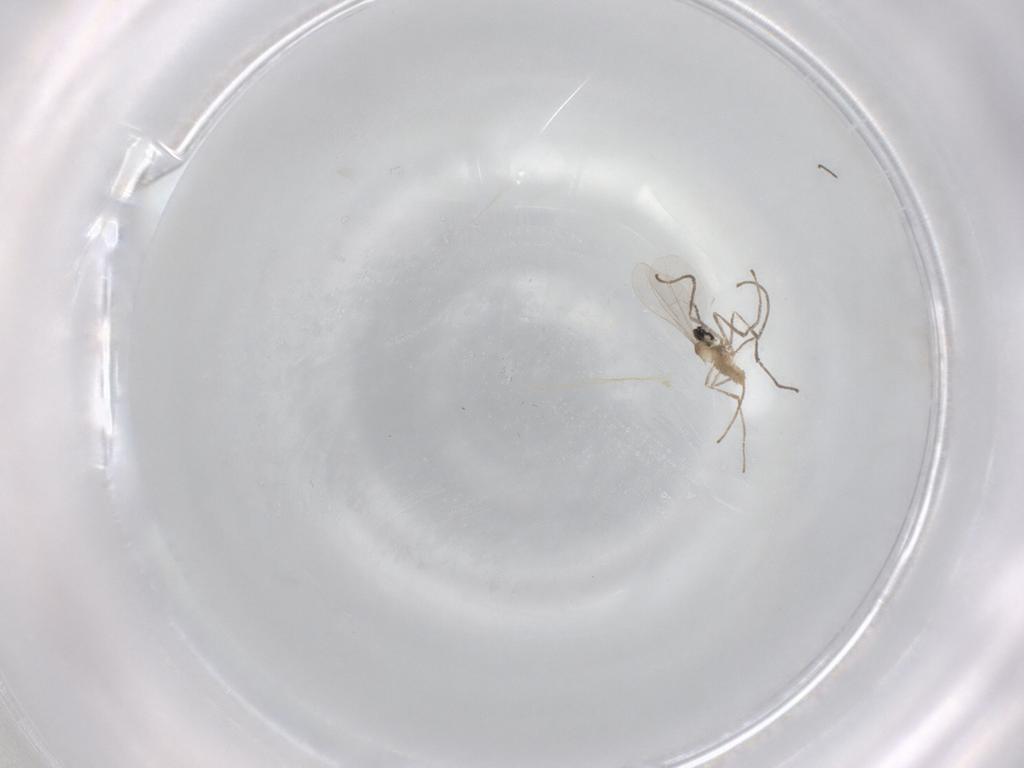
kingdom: Animalia
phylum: Arthropoda
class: Insecta
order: Diptera
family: Cecidomyiidae
